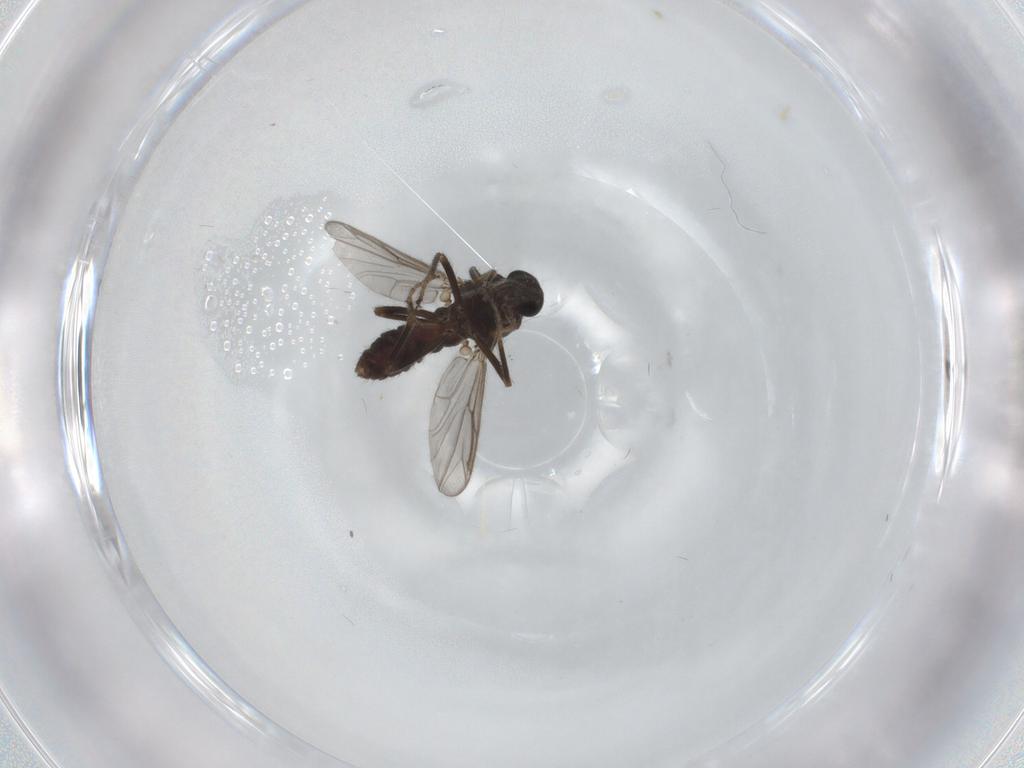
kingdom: Animalia
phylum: Arthropoda
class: Insecta
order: Diptera
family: Ceratopogonidae
